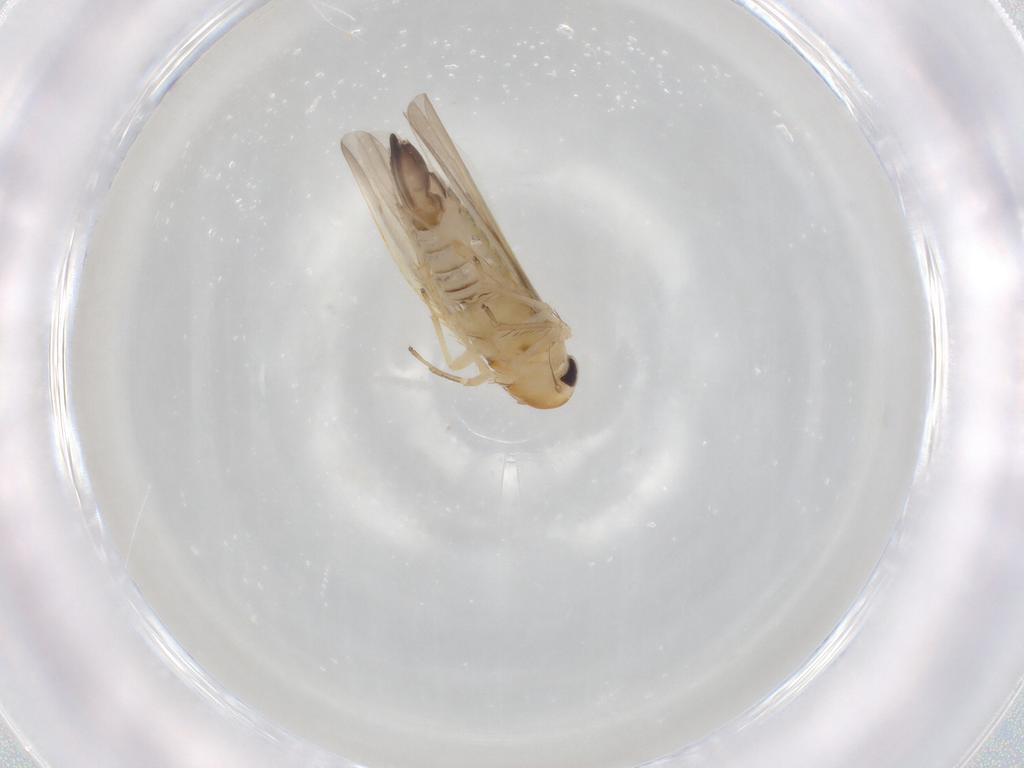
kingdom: Animalia
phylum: Arthropoda
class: Insecta
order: Hemiptera
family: Cicadellidae
